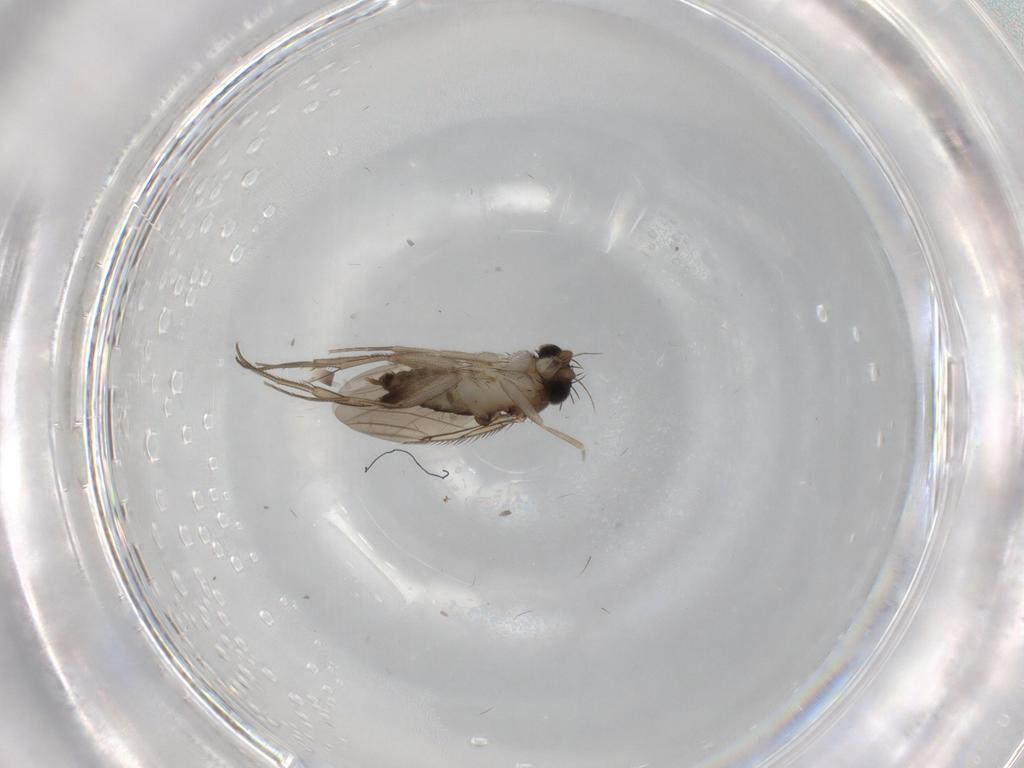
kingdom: Animalia
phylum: Arthropoda
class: Insecta
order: Diptera
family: Phoridae
